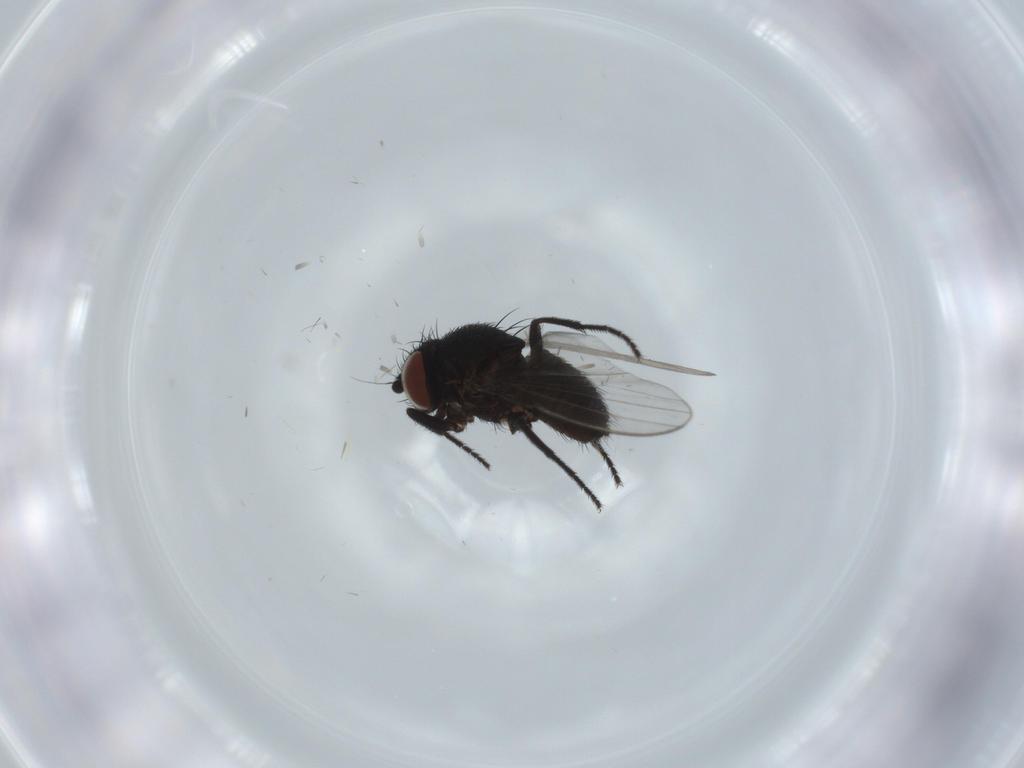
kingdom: Animalia
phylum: Arthropoda
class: Insecta
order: Diptera
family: Milichiidae
